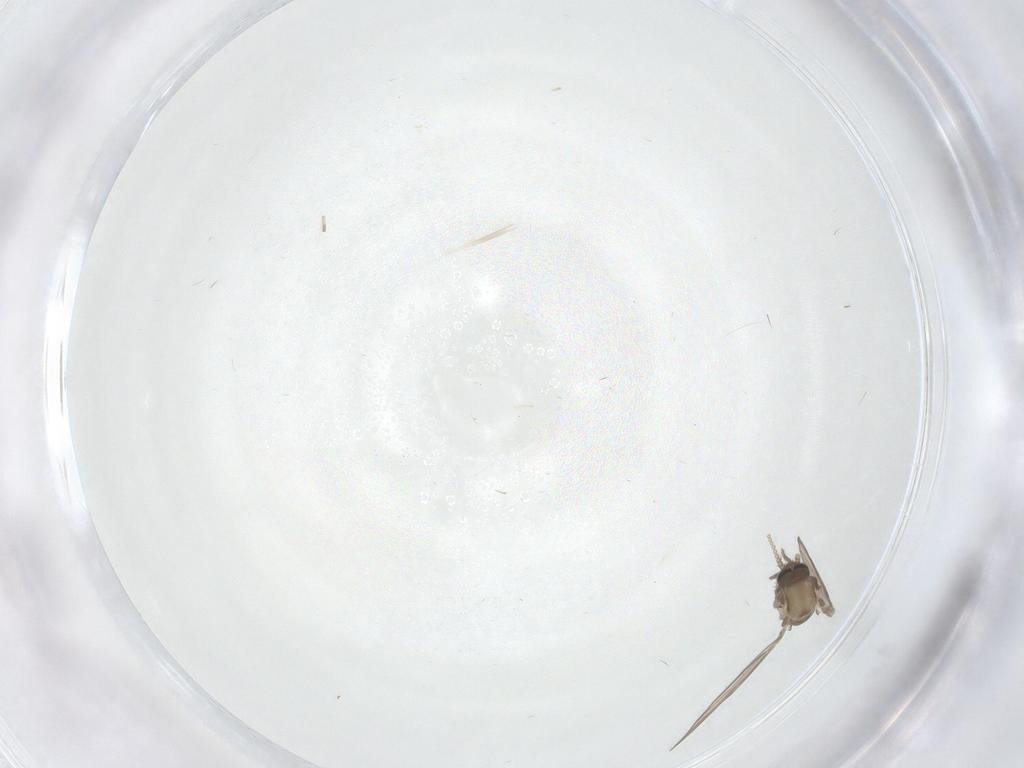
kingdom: Animalia
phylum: Arthropoda
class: Insecta
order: Diptera
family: Psychodidae
